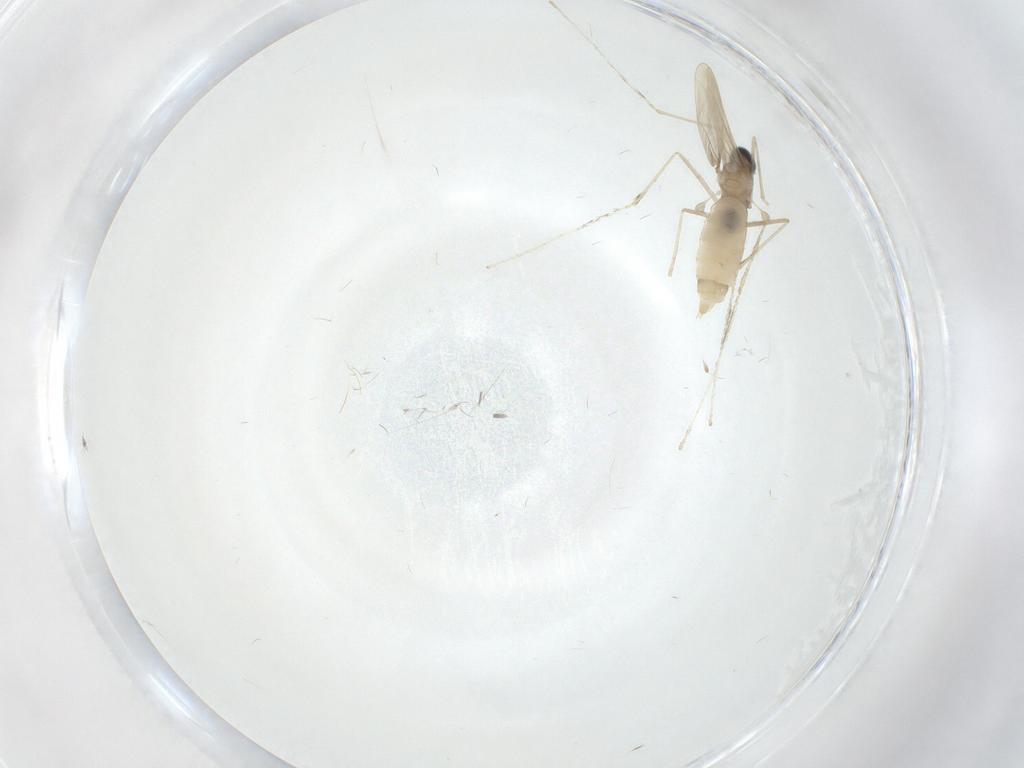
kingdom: Animalia
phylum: Arthropoda
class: Insecta
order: Diptera
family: Cecidomyiidae
